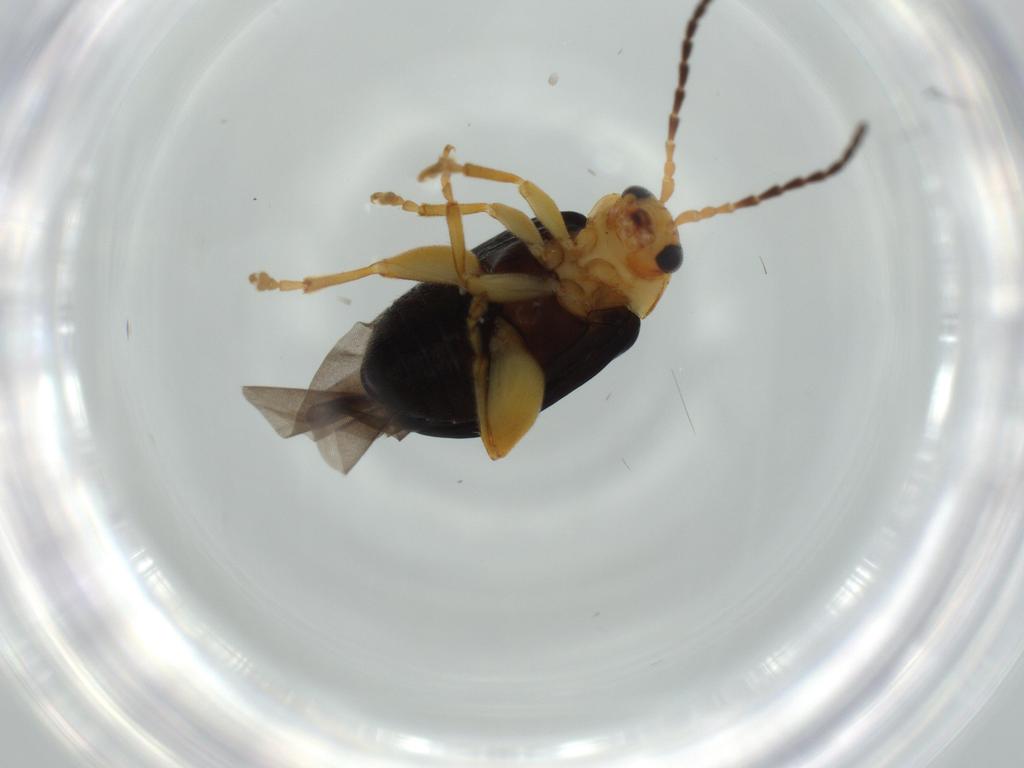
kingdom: Animalia
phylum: Arthropoda
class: Insecta
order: Coleoptera
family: Chrysomelidae
